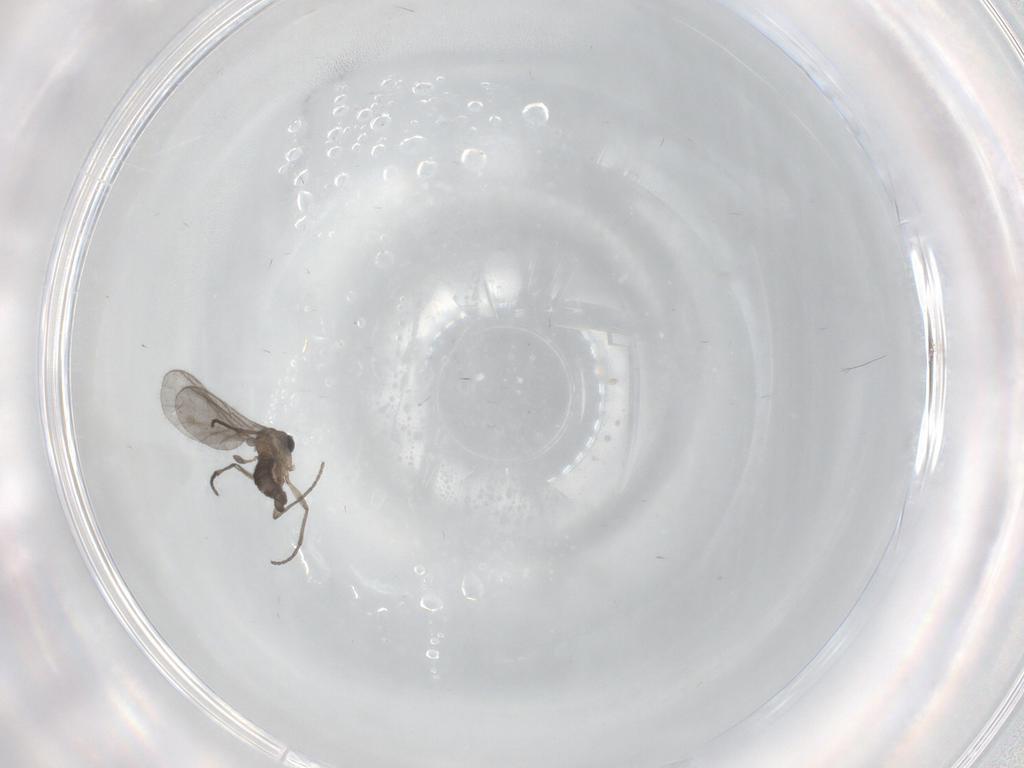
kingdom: Animalia
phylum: Arthropoda
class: Insecta
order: Diptera
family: Sciaridae
